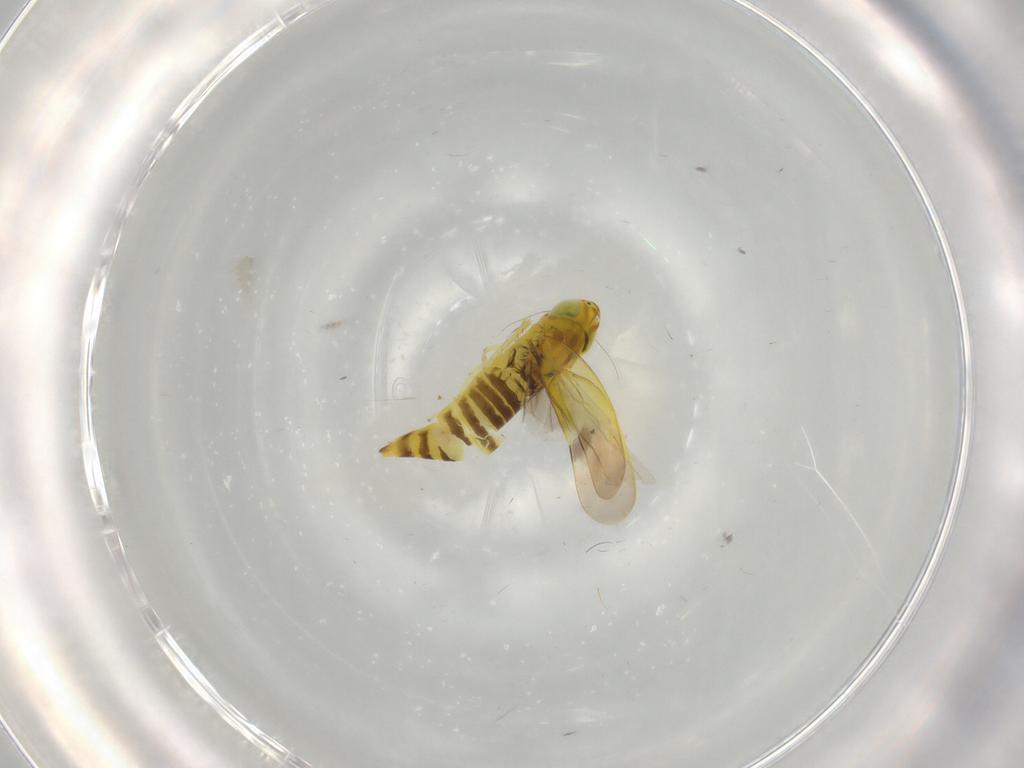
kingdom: Animalia
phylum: Arthropoda
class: Insecta
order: Hemiptera
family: Cicadellidae
